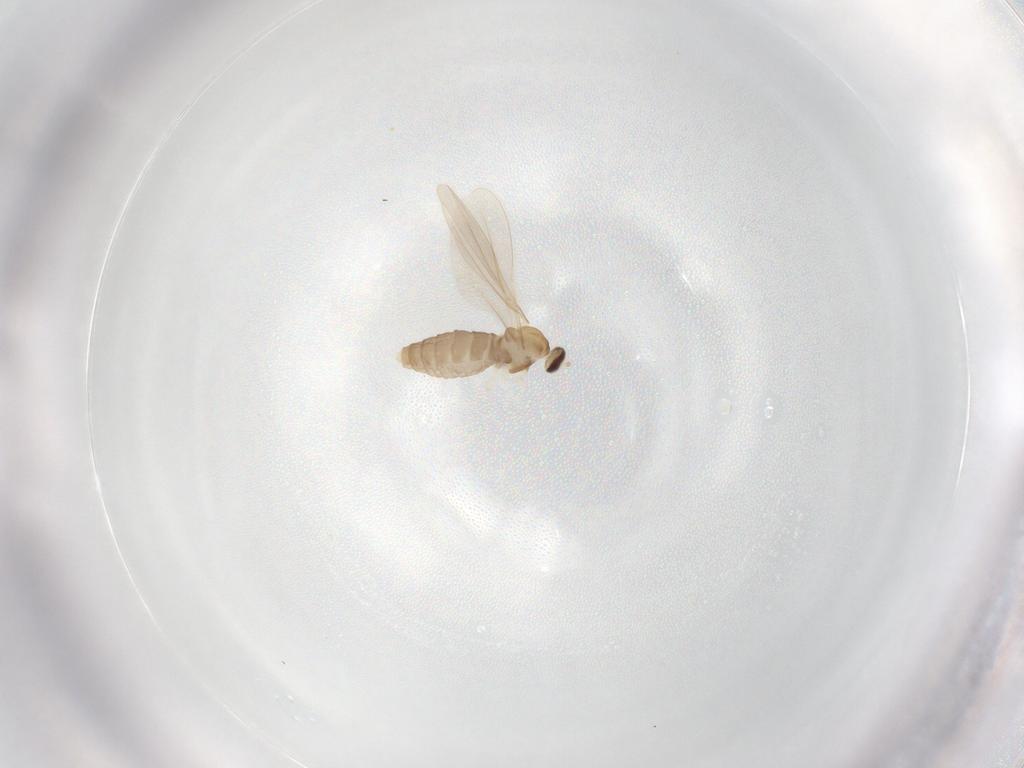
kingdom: Animalia
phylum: Arthropoda
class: Insecta
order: Diptera
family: Cecidomyiidae
